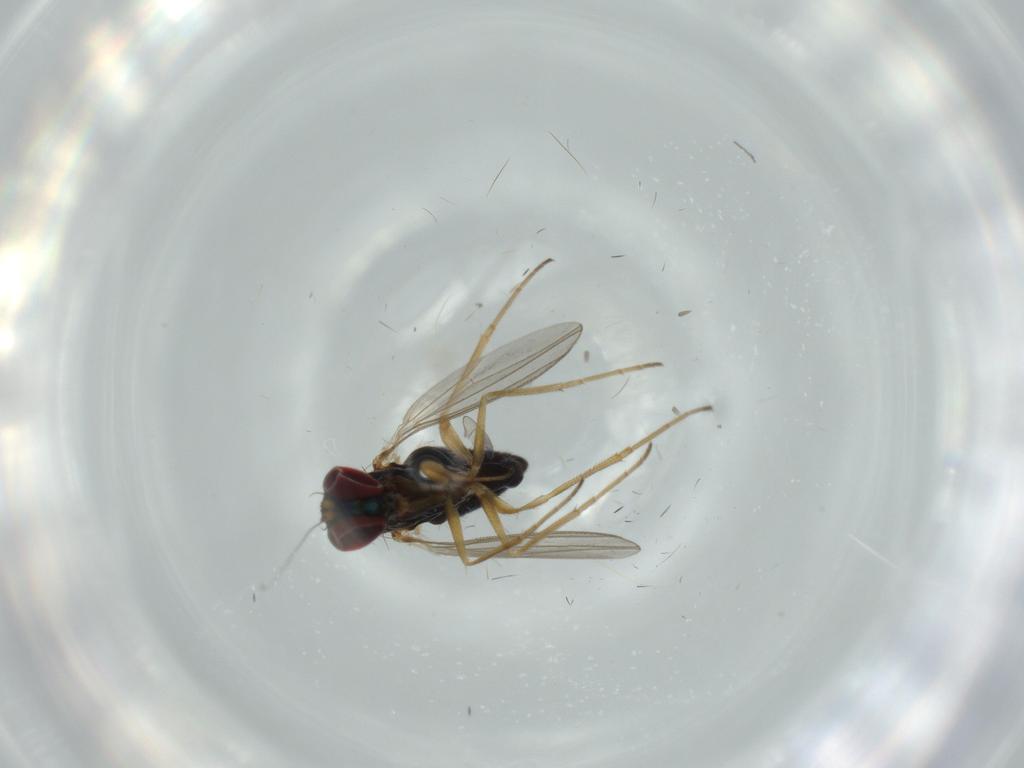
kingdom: Animalia
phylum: Arthropoda
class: Insecta
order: Diptera
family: Dolichopodidae
